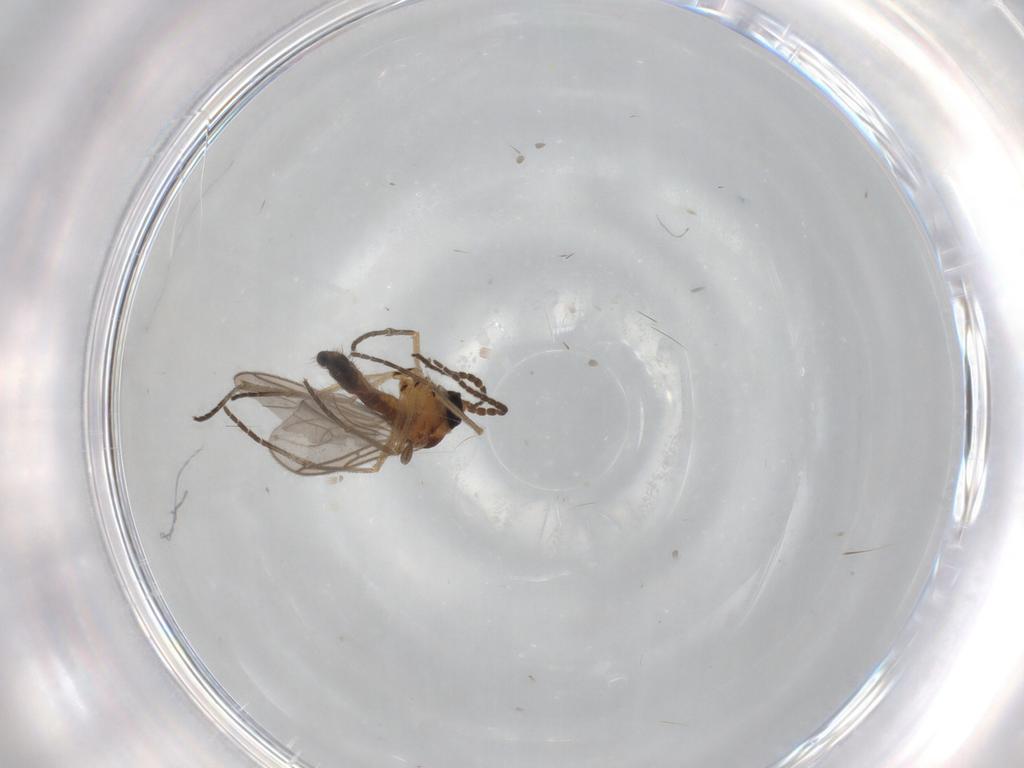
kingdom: Animalia
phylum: Arthropoda
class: Insecta
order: Diptera
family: Sciaridae
